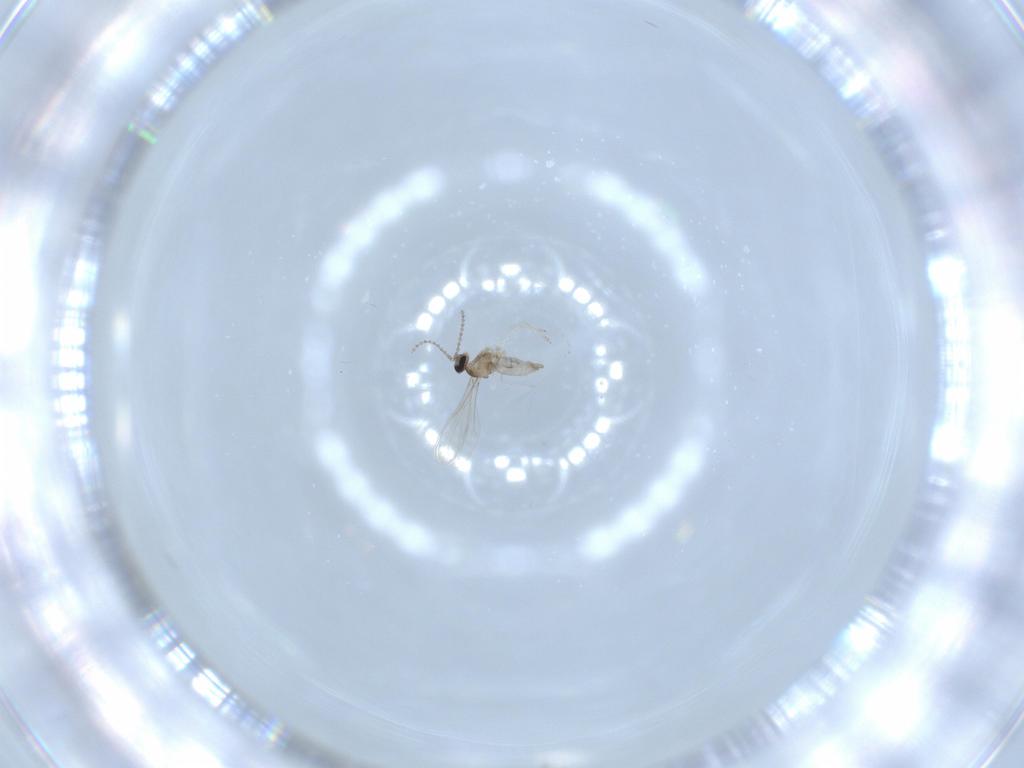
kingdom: Animalia
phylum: Arthropoda
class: Insecta
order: Diptera
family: Cecidomyiidae
